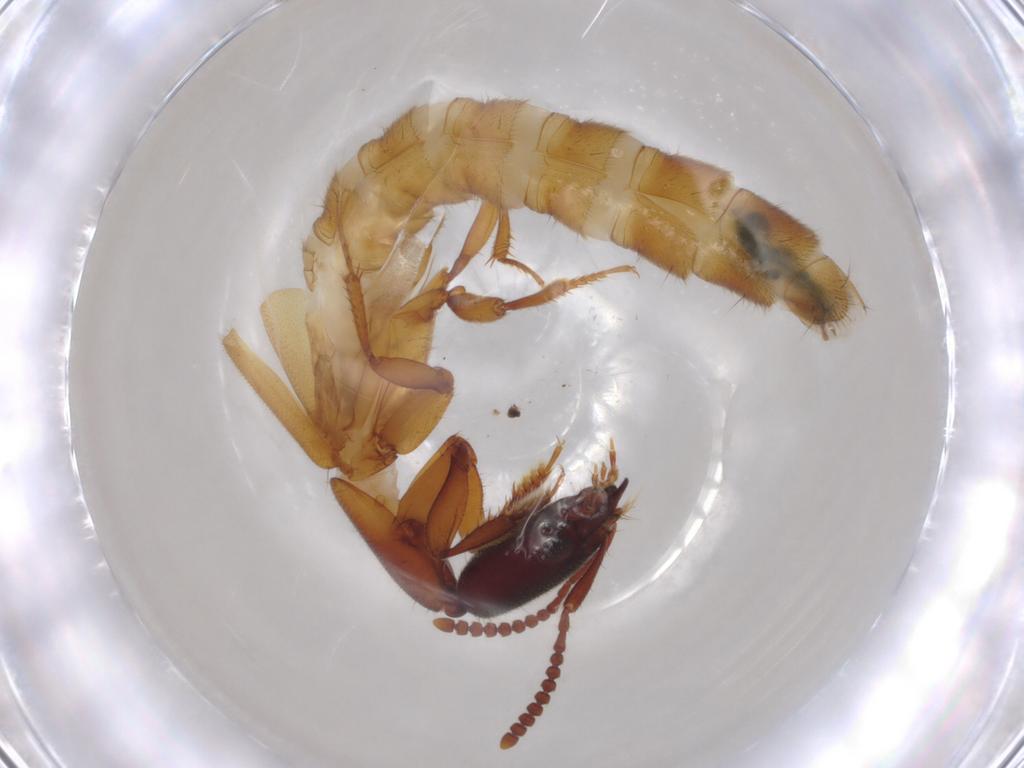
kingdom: Animalia
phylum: Arthropoda
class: Insecta
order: Coleoptera
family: Staphylinidae
